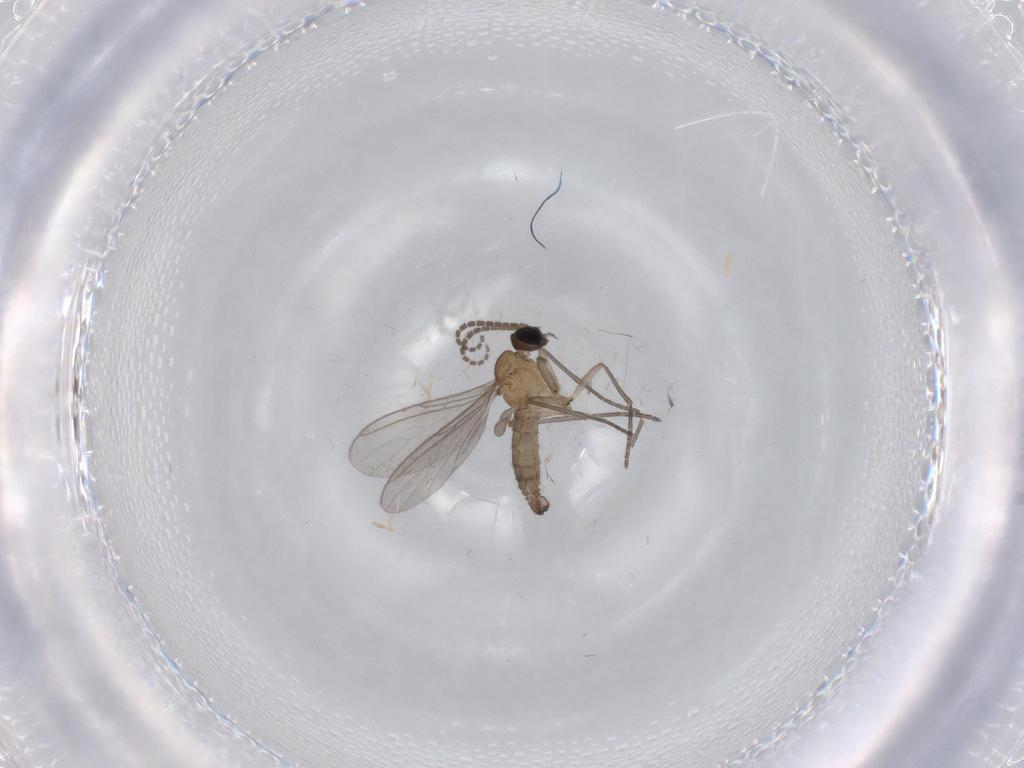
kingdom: Animalia
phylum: Arthropoda
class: Insecta
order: Diptera
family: Sciaridae
